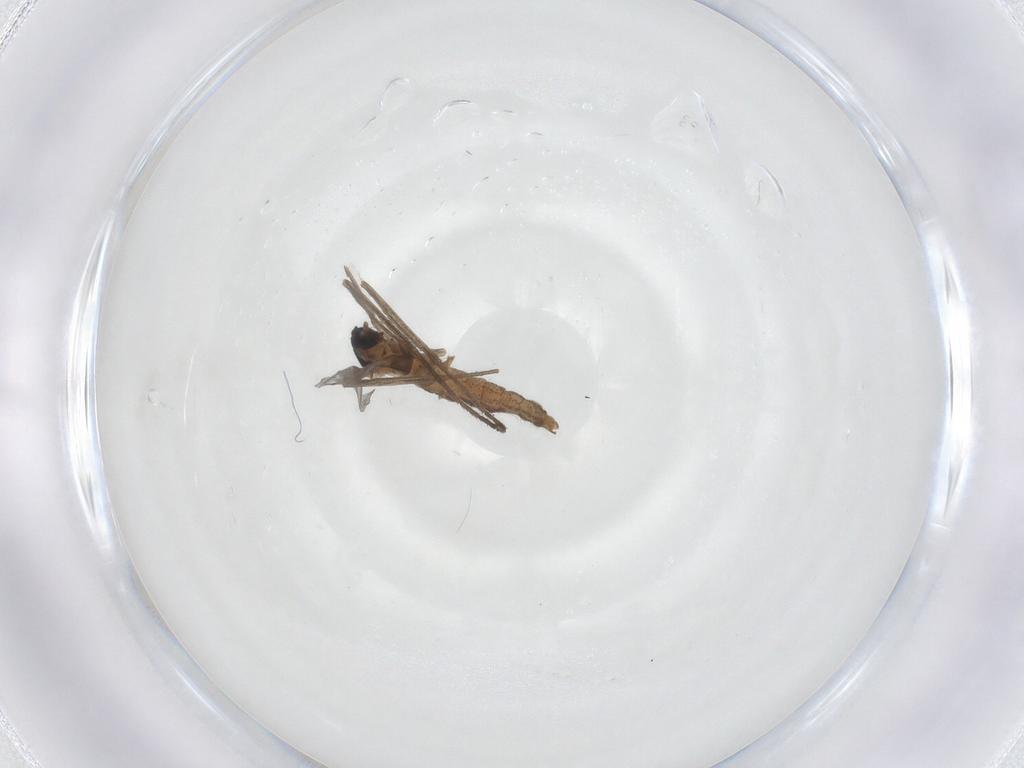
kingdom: Animalia
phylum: Arthropoda
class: Insecta
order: Diptera
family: Cecidomyiidae
